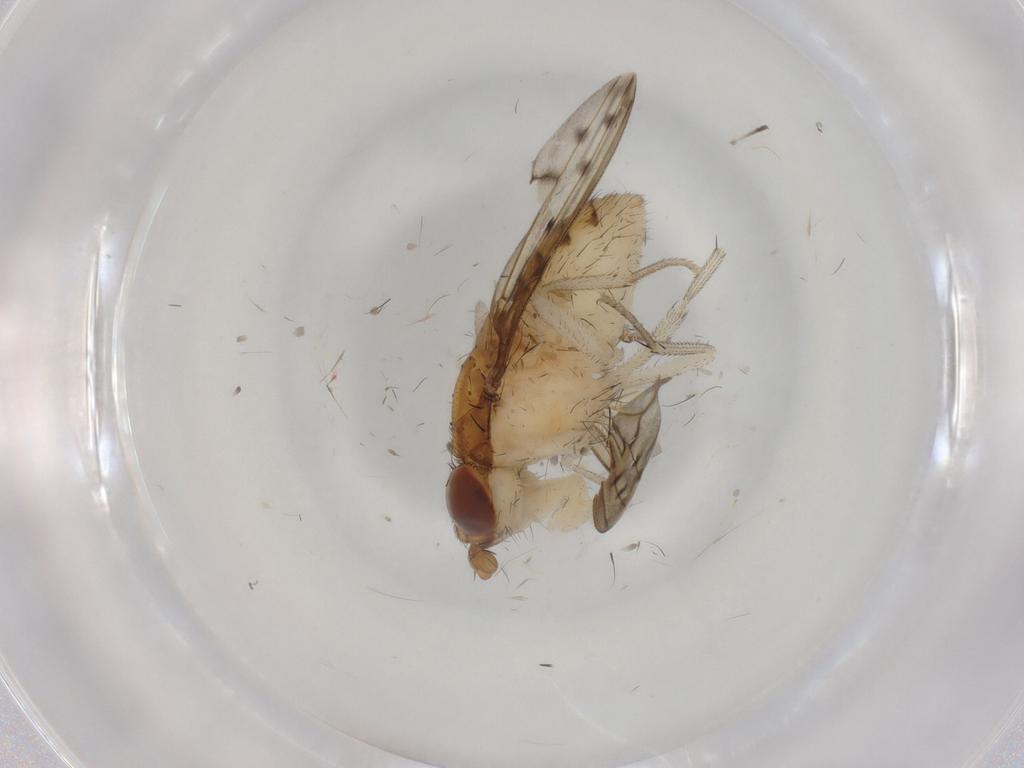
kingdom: Animalia
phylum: Arthropoda
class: Insecta
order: Diptera
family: Lauxaniidae
